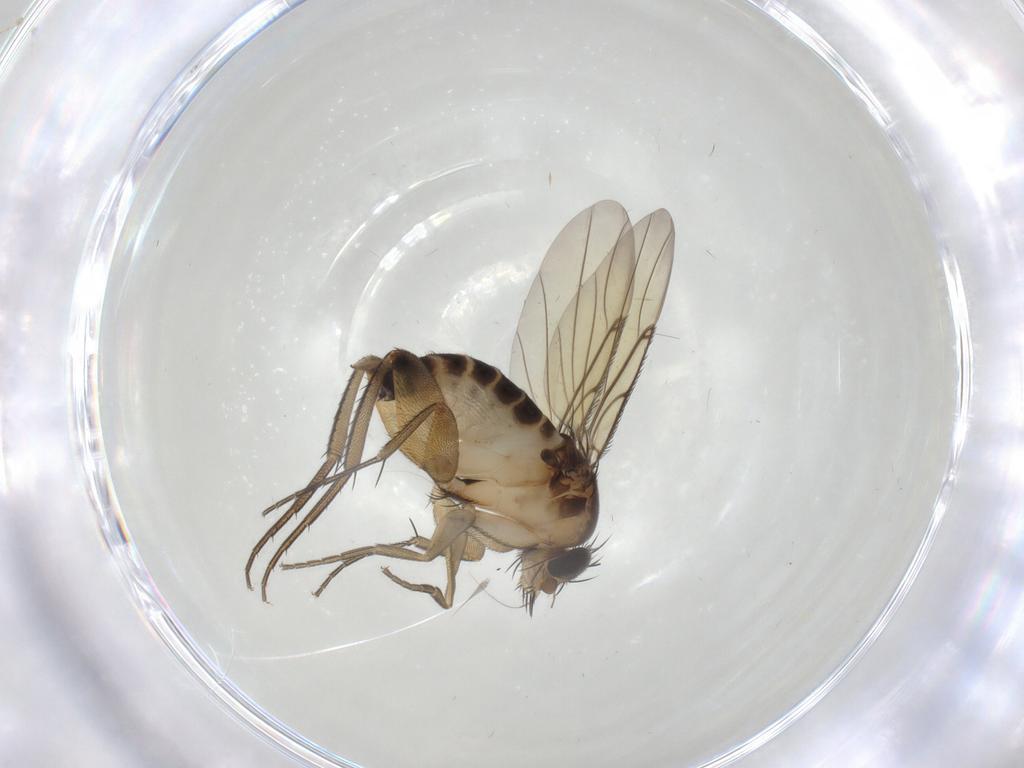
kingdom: Animalia
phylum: Arthropoda
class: Insecta
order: Diptera
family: Phoridae
